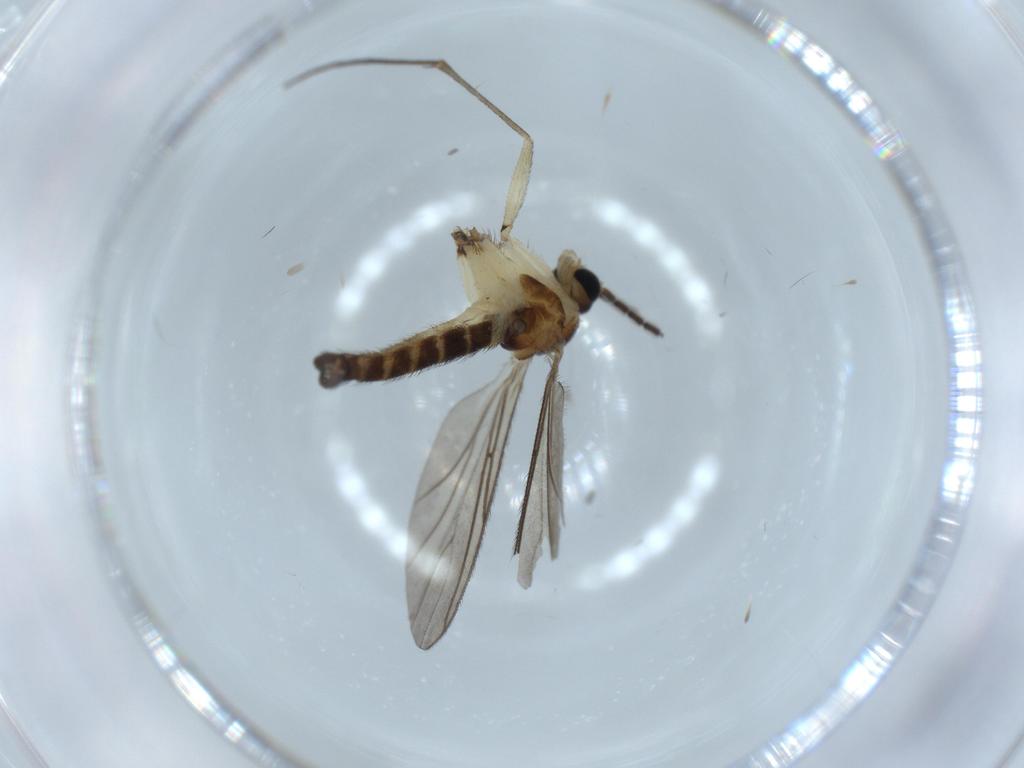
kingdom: Animalia
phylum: Arthropoda
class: Insecta
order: Diptera
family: Sciaridae
